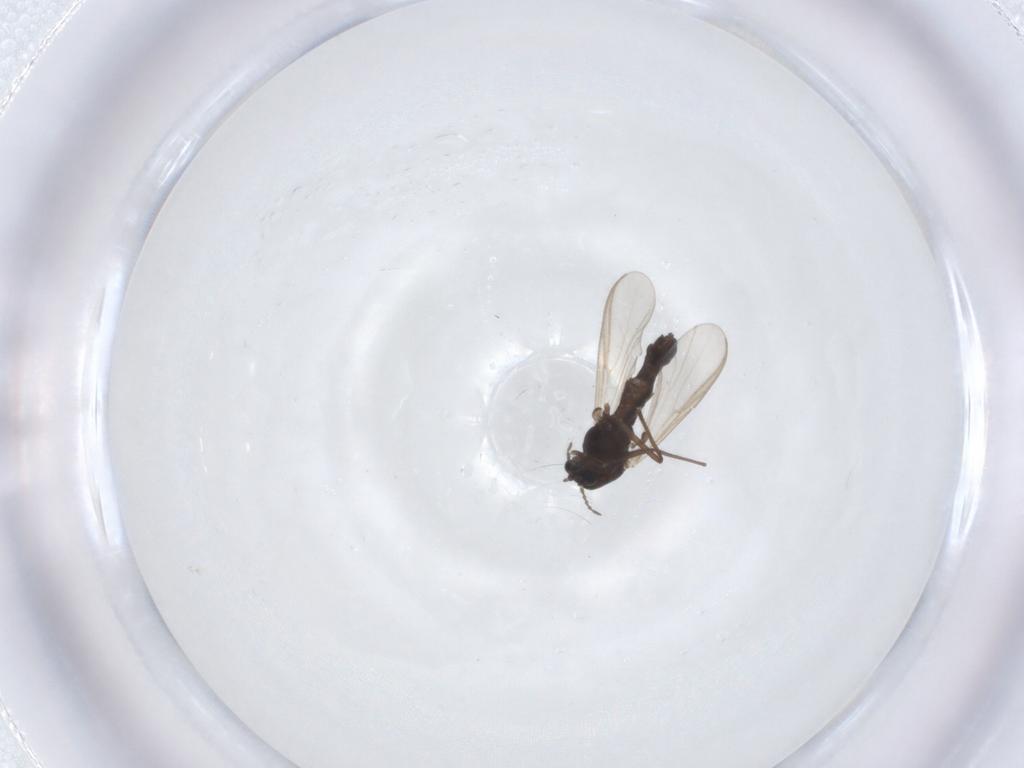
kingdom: Animalia
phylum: Arthropoda
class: Insecta
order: Diptera
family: Chironomidae
